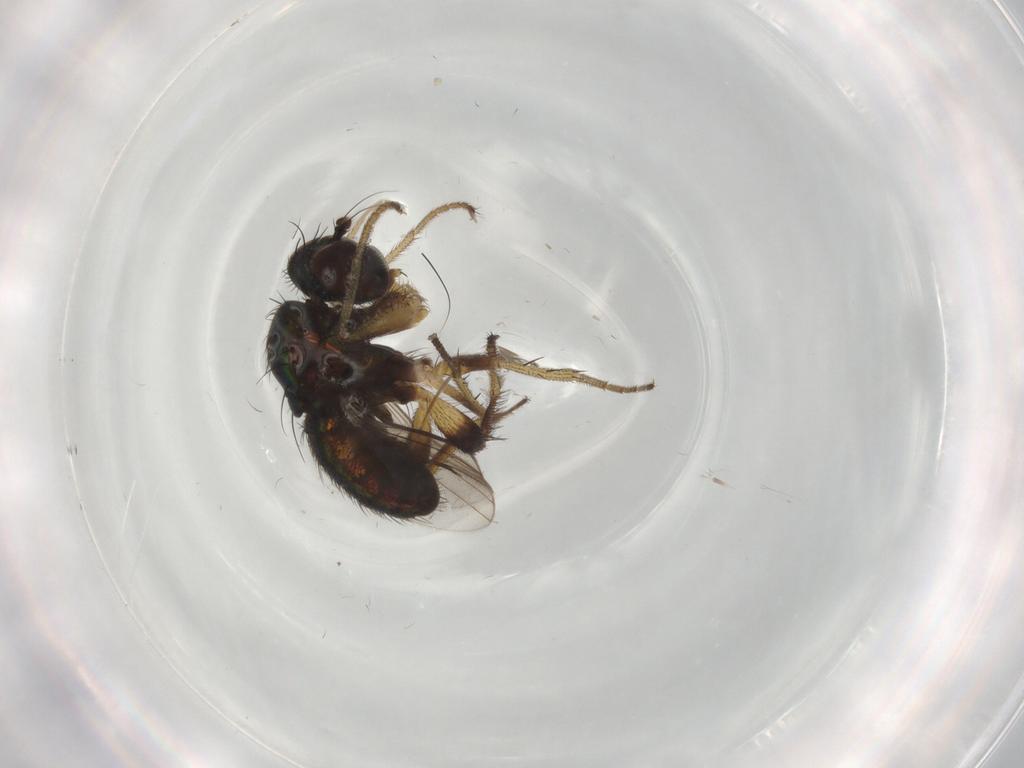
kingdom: Animalia
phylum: Arthropoda
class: Insecta
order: Diptera
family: Dolichopodidae
